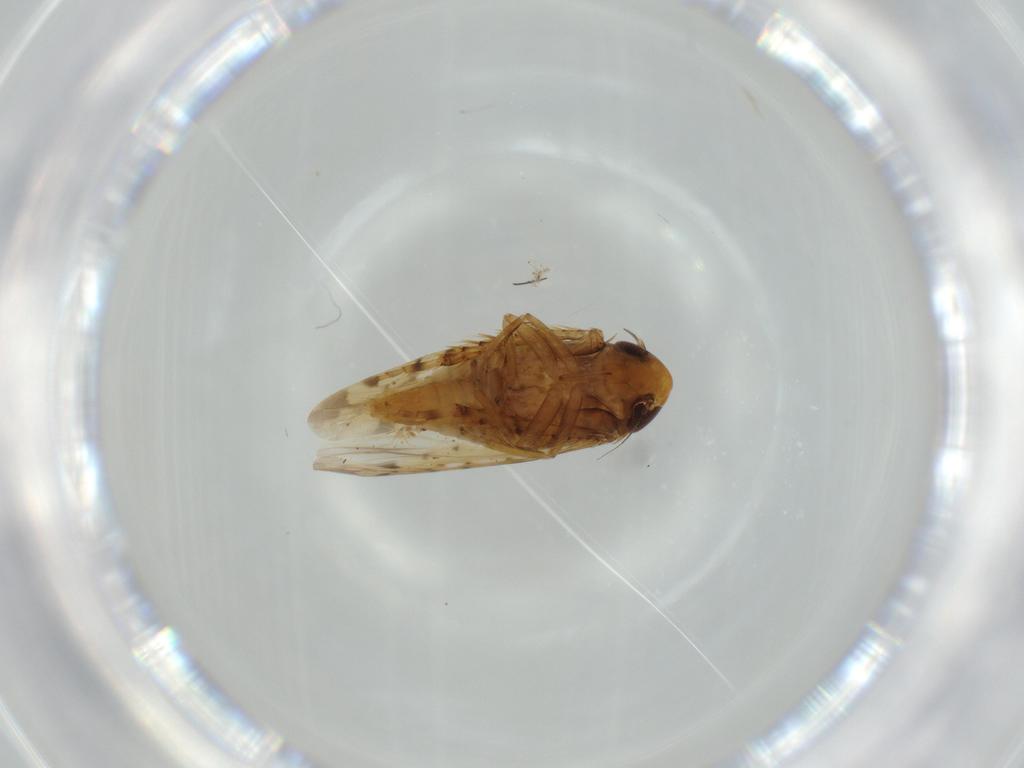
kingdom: Animalia
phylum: Arthropoda
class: Insecta
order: Hemiptera
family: Cicadellidae
